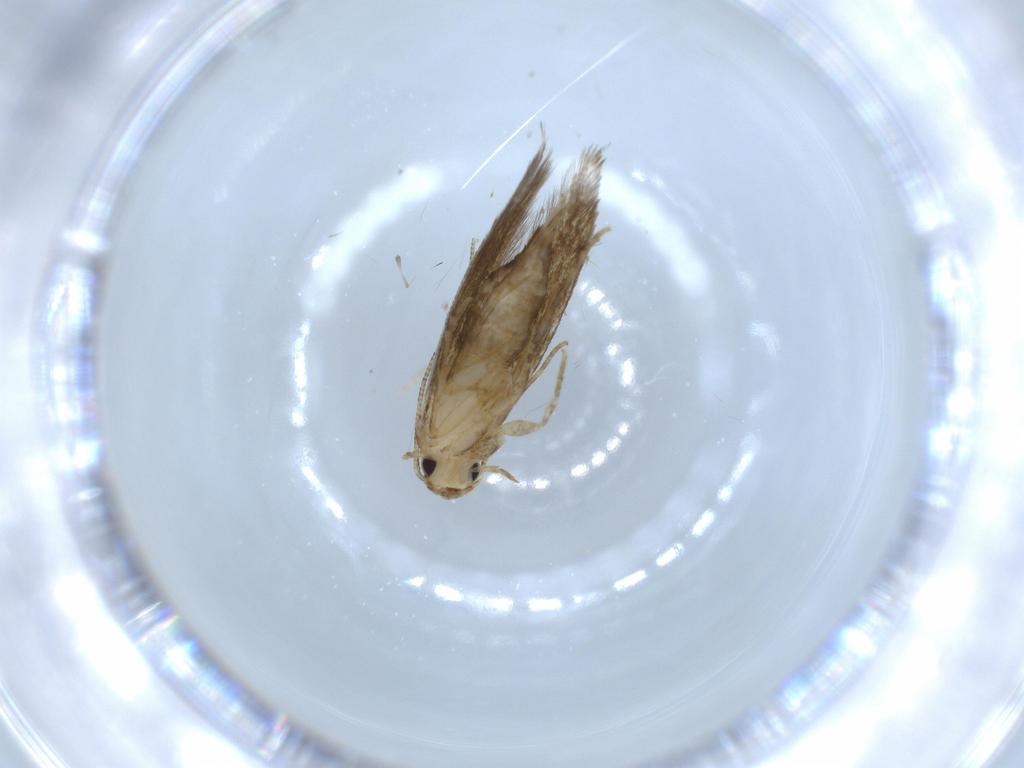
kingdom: Animalia
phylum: Arthropoda
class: Insecta
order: Lepidoptera
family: Tineidae
